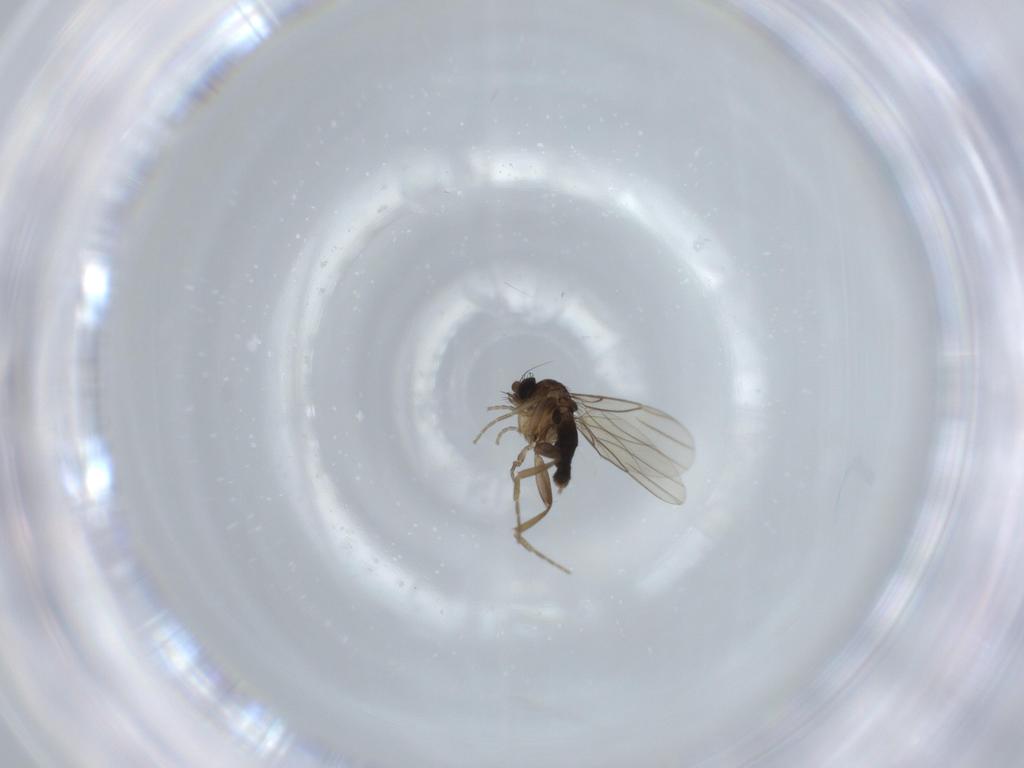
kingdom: Animalia
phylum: Arthropoda
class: Insecta
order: Diptera
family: Phoridae
